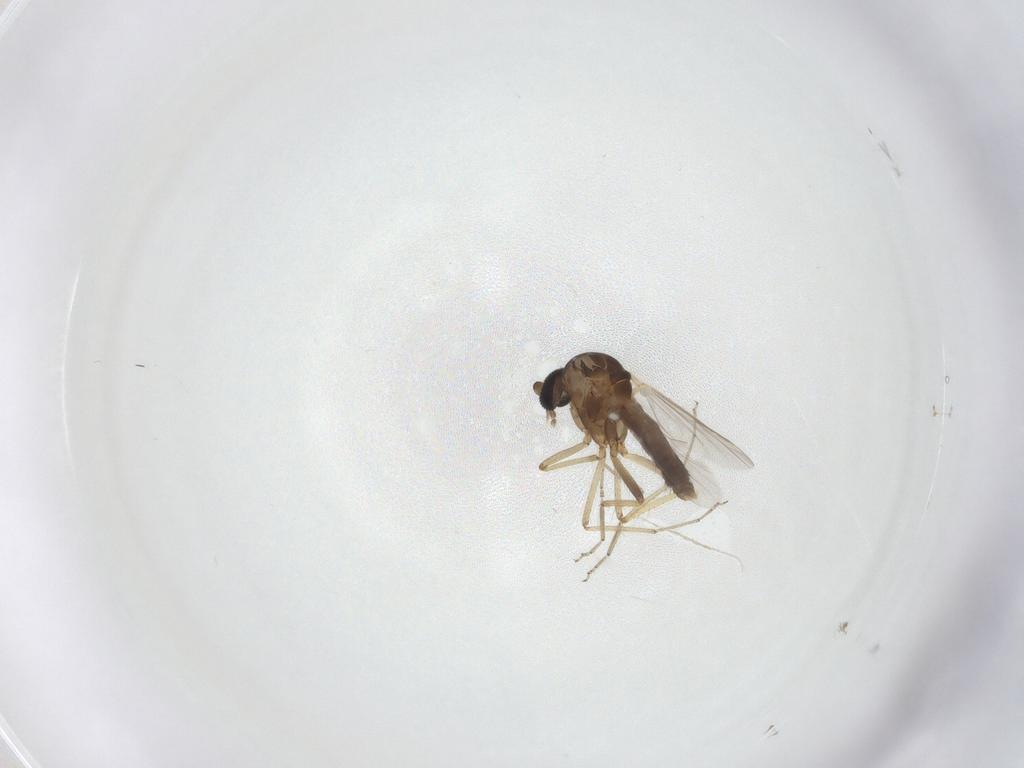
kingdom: Animalia
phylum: Arthropoda
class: Insecta
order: Diptera
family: Ceratopogonidae
